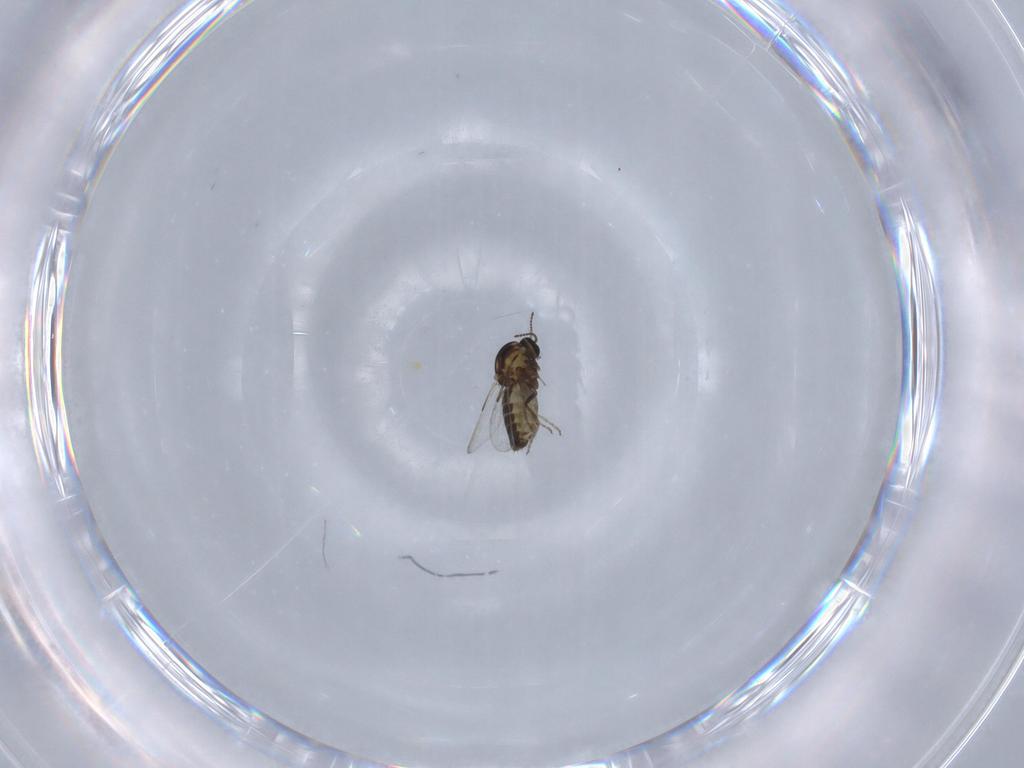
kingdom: Animalia
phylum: Arthropoda
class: Insecta
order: Diptera
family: Ceratopogonidae
